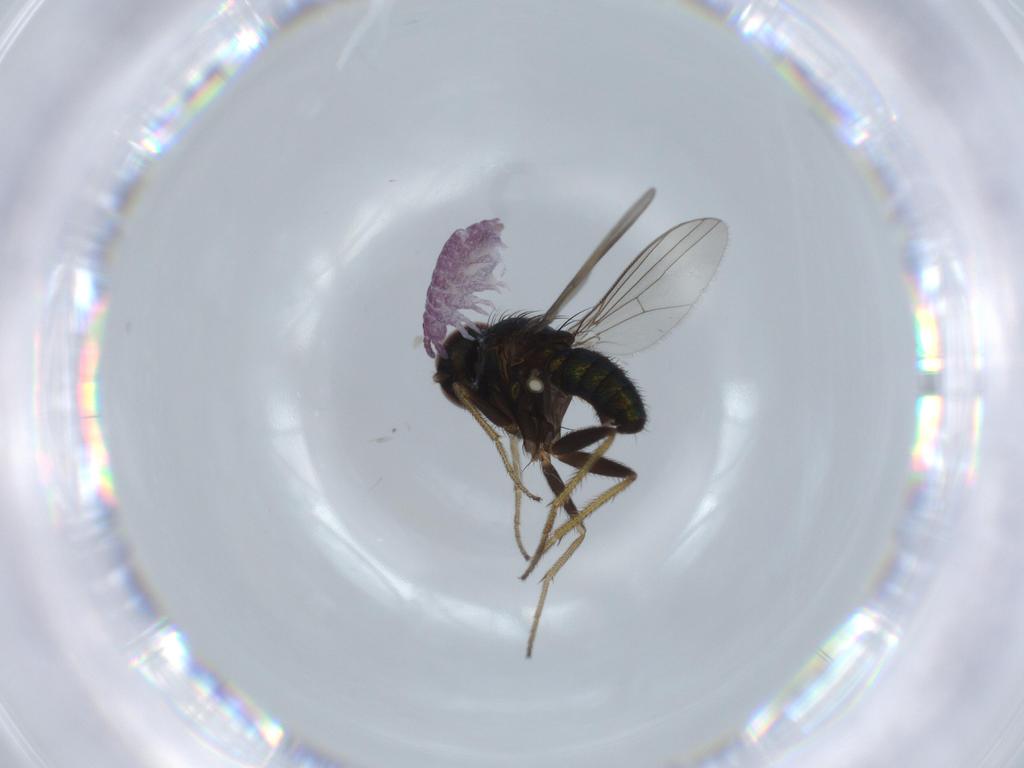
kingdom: Animalia
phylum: Arthropoda
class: Insecta
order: Diptera
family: Dolichopodidae
